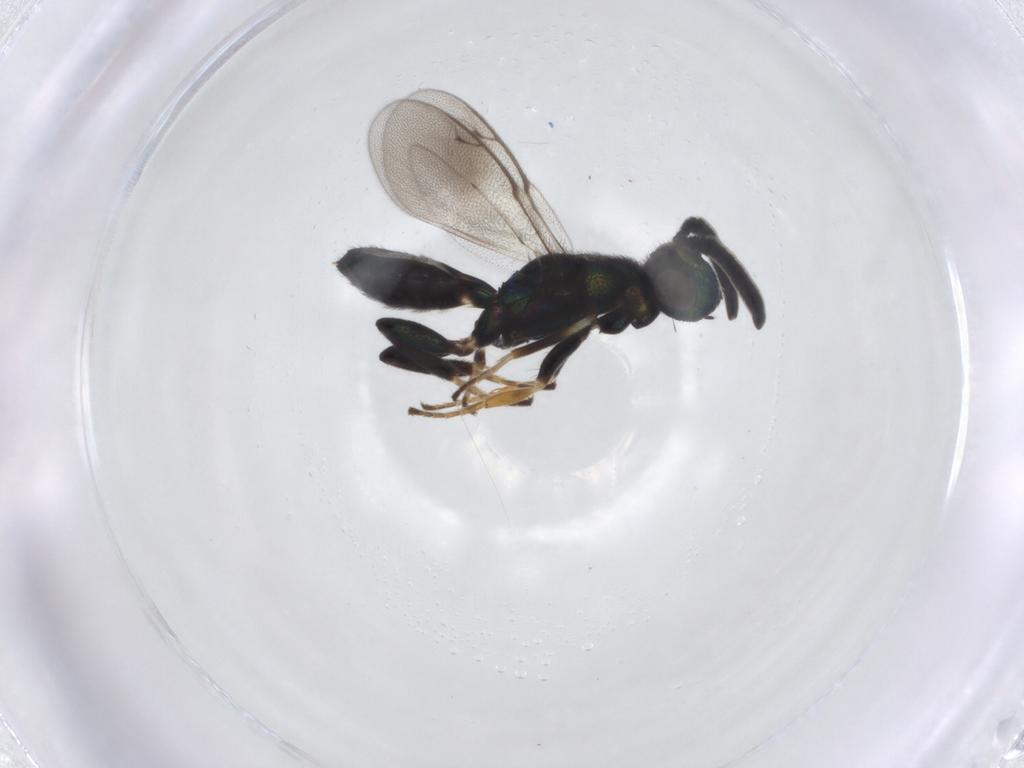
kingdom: Animalia
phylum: Arthropoda
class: Insecta
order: Hymenoptera
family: Eupelmidae
